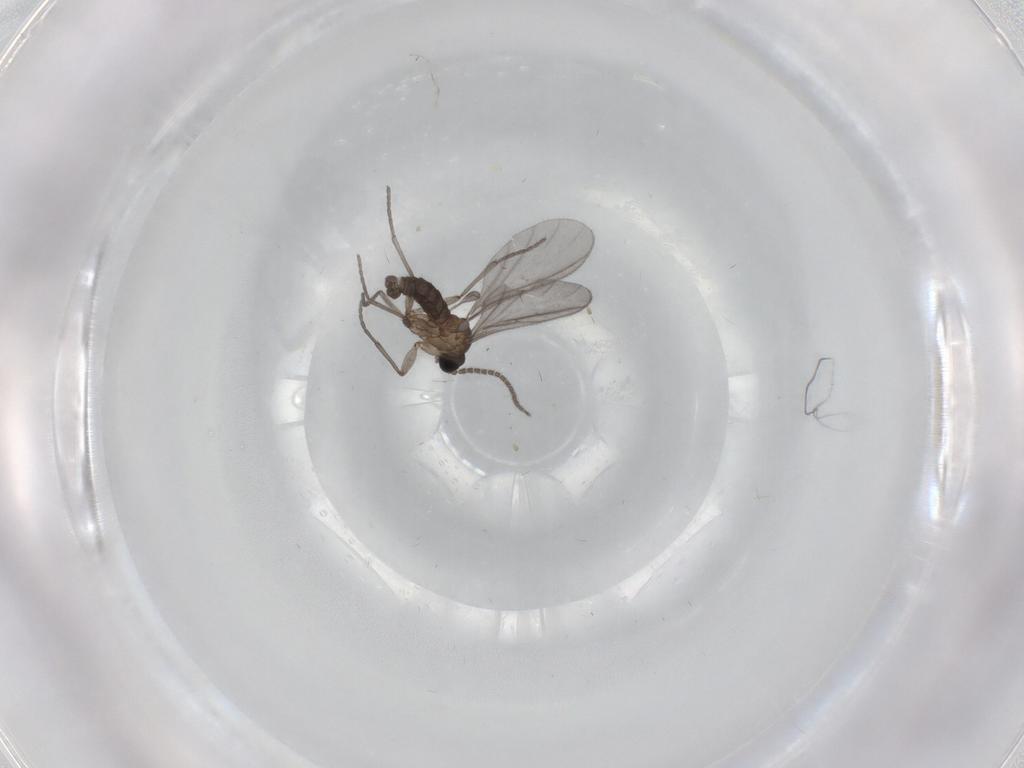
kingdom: Animalia
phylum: Arthropoda
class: Insecta
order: Diptera
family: Sciaridae
